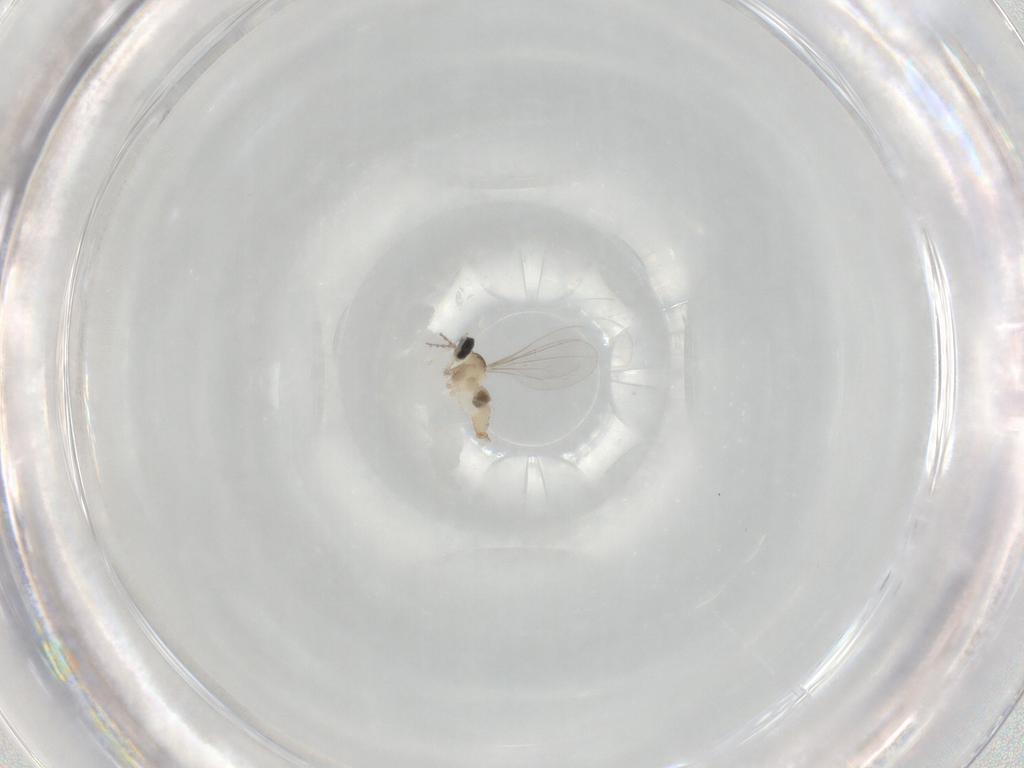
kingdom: Animalia
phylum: Arthropoda
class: Insecta
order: Diptera
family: Cecidomyiidae
